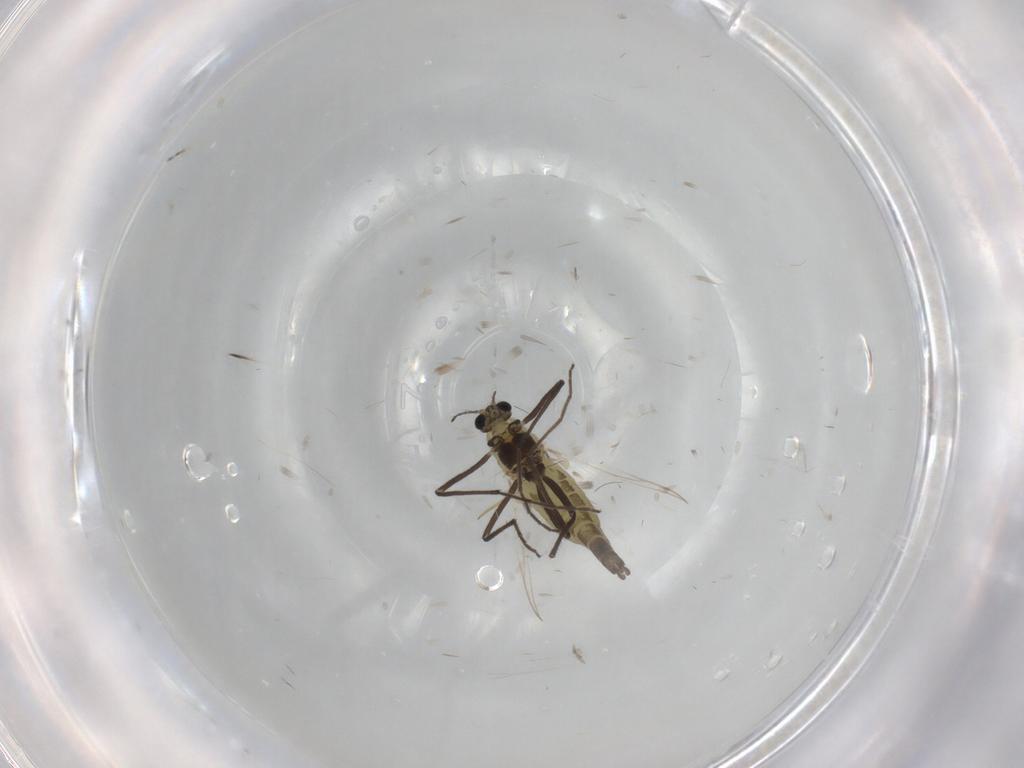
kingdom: Animalia
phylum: Arthropoda
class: Insecta
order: Diptera
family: Chironomidae
